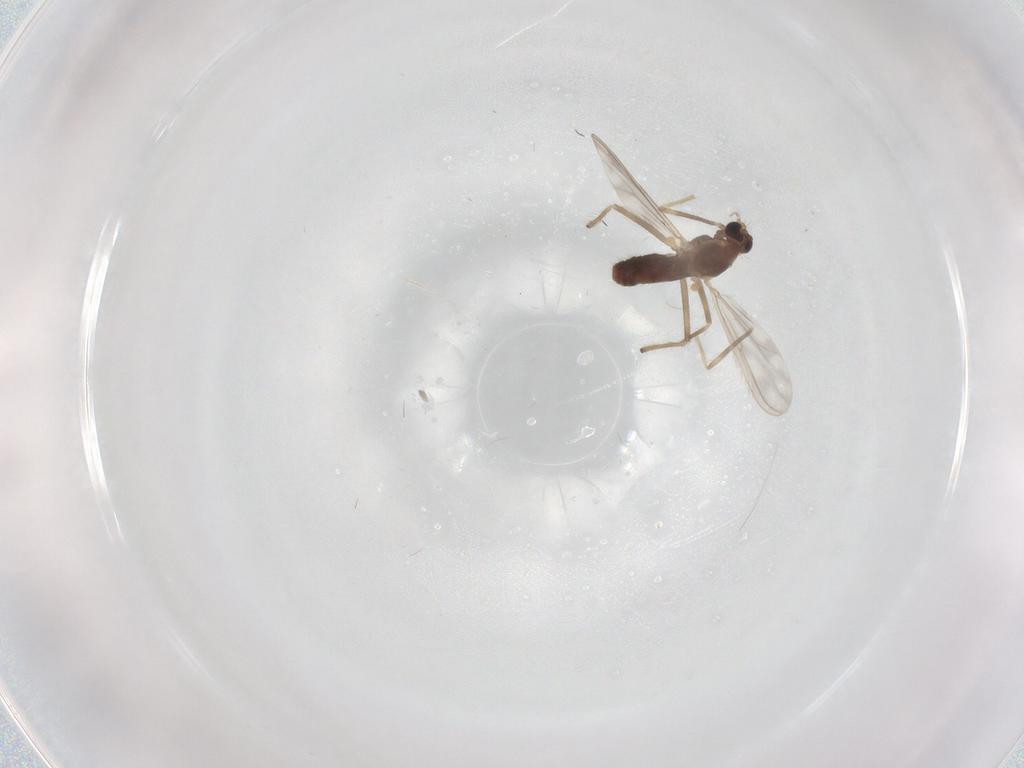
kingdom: Animalia
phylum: Arthropoda
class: Insecta
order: Diptera
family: Chironomidae
